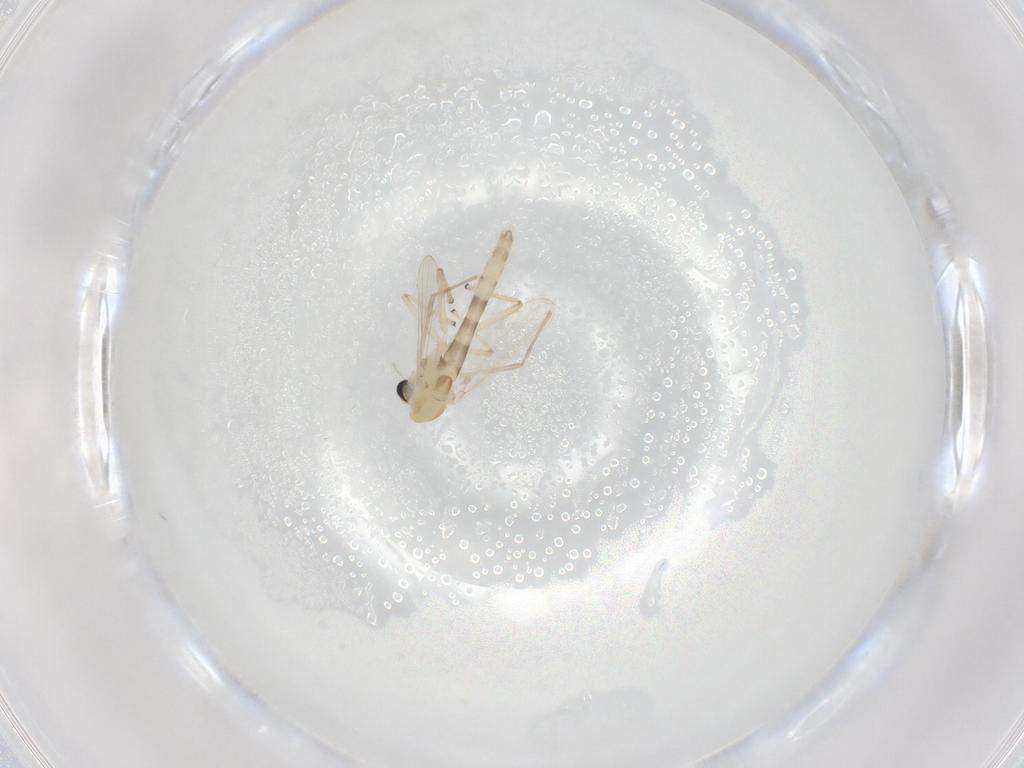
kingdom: Animalia
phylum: Arthropoda
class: Insecta
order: Diptera
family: Chironomidae
